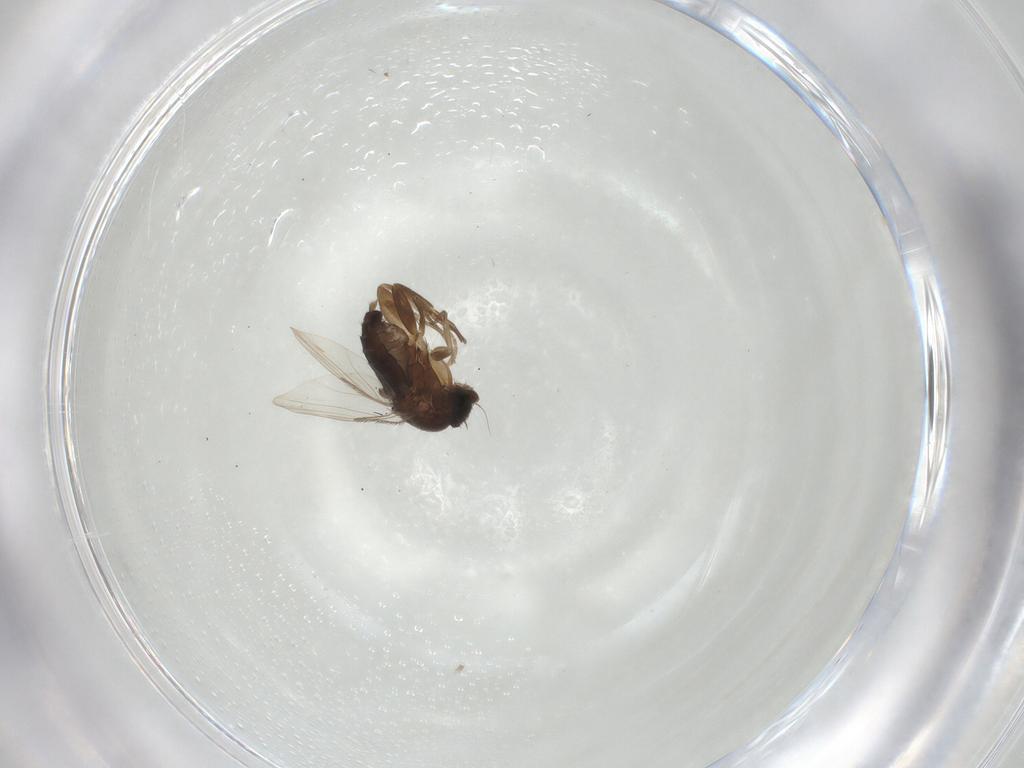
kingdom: Animalia
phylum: Arthropoda
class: Insecta
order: Diptera
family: Phoridae
